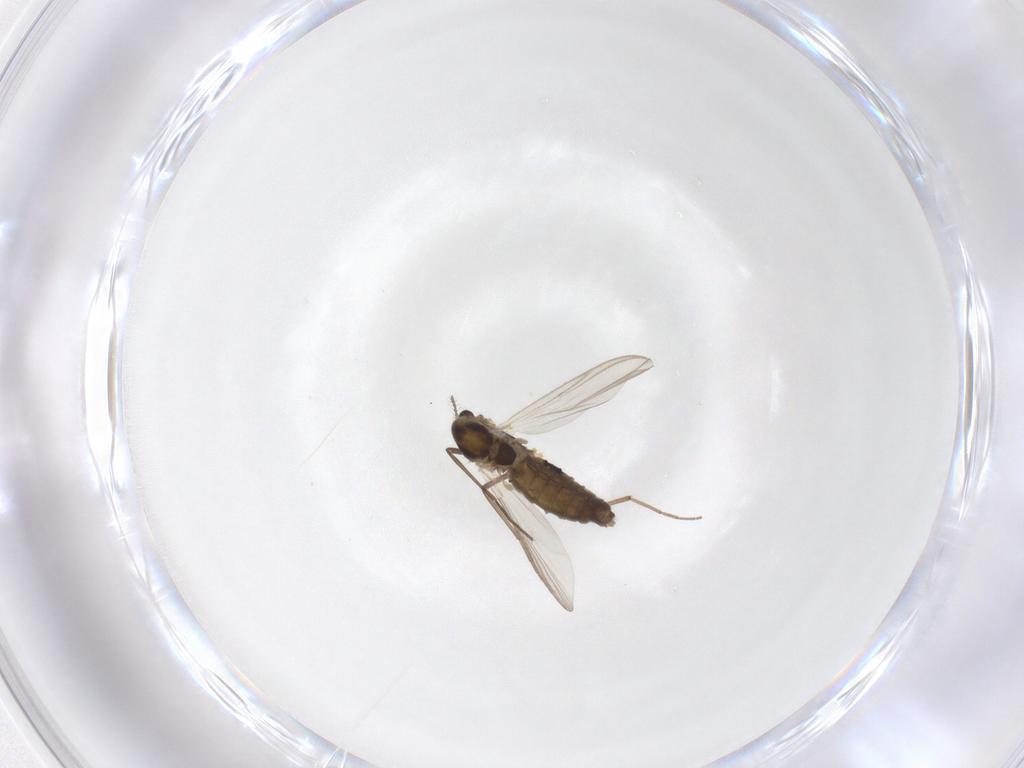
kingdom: Animalia
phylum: Arthropoda
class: Insecta
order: Diptera
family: Chironomidae
